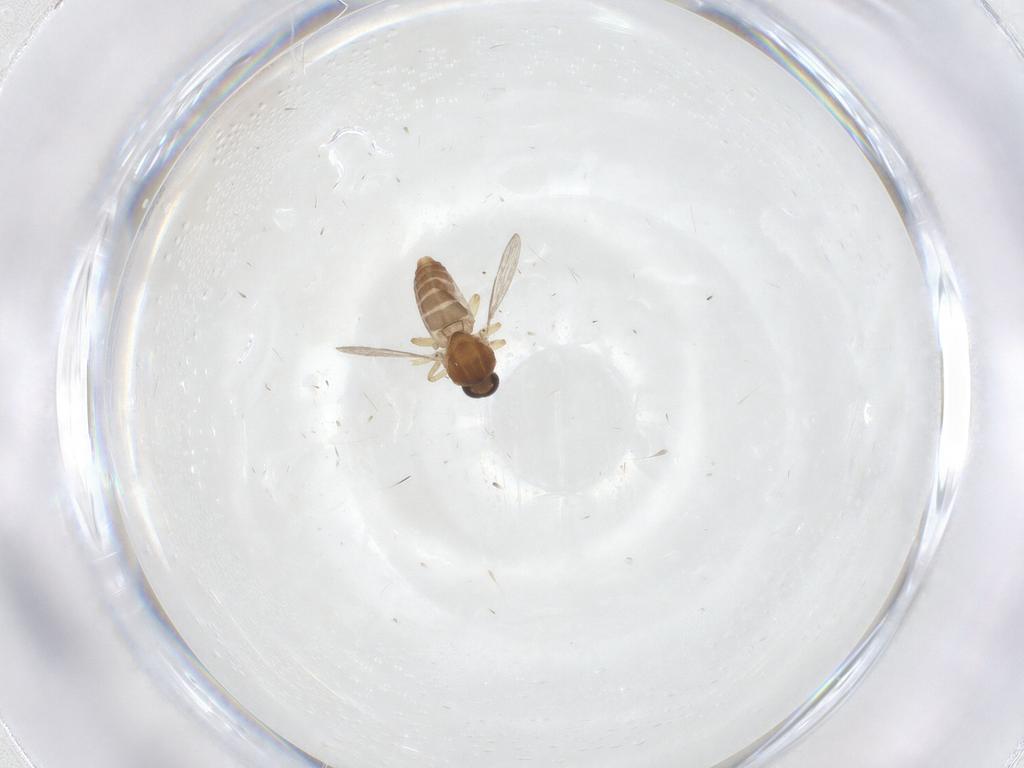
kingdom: Animalia
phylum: Arthropoda
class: Insecta
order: Diptera
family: Ceratopogonidae
